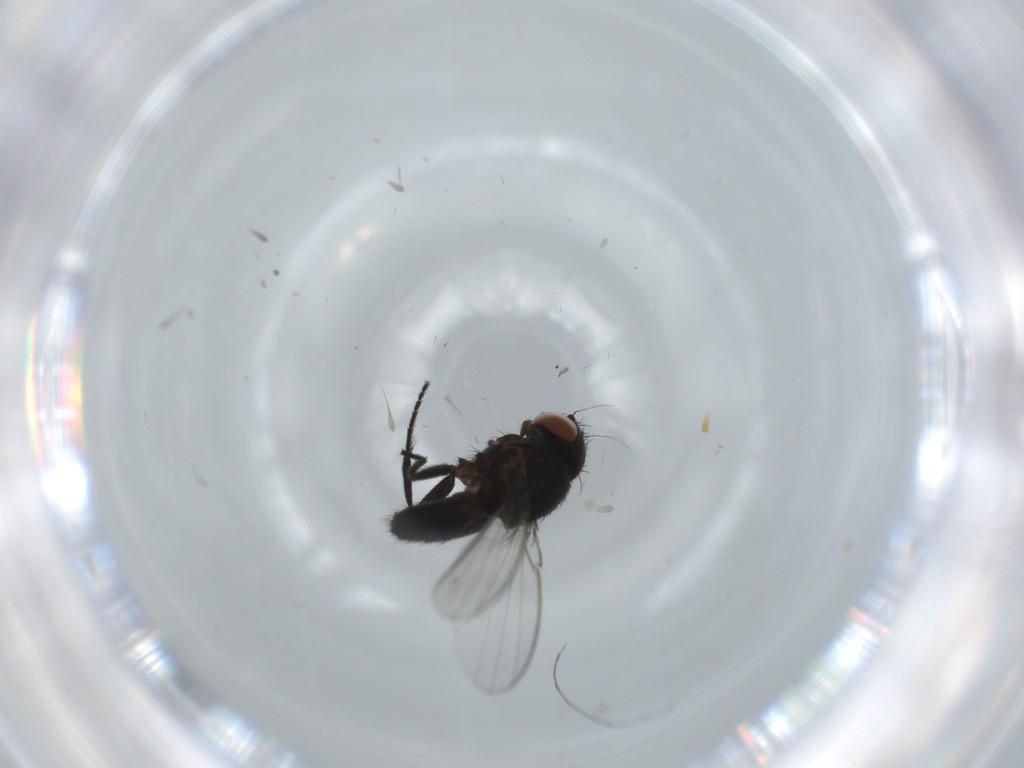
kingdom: Animalia
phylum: Arthropoda
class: Insecta
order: Diptera
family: Milichiidae
